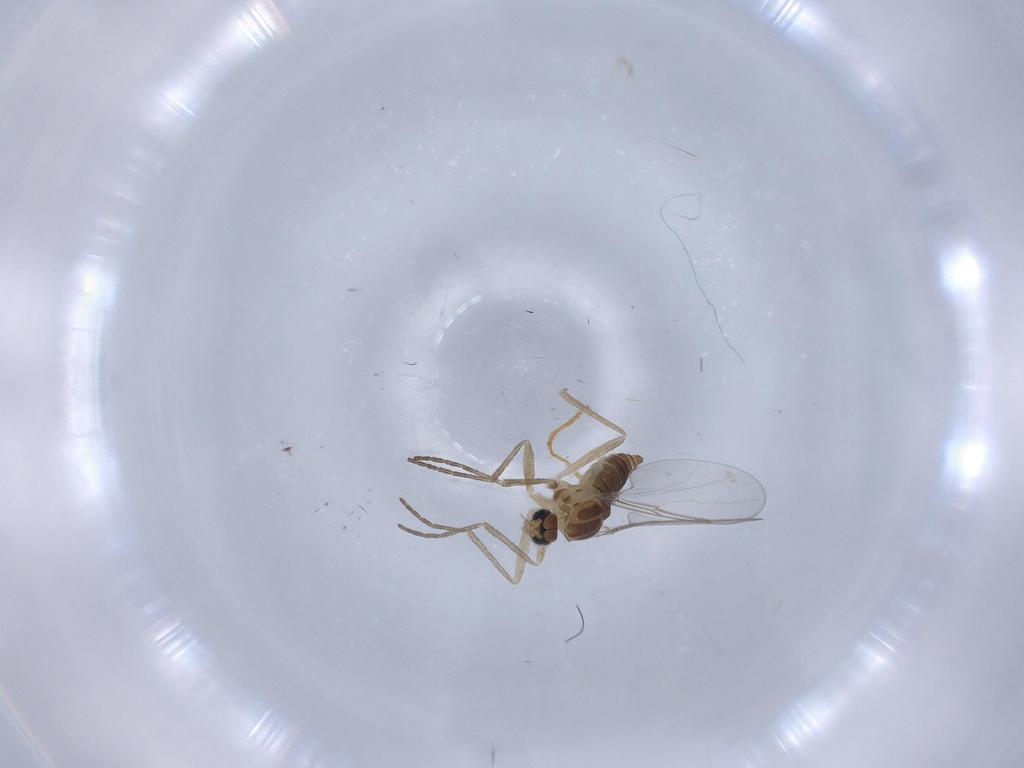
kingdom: Animalia
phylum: Arthropoda
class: Insecta
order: Diptera
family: Cecidomyiidae
